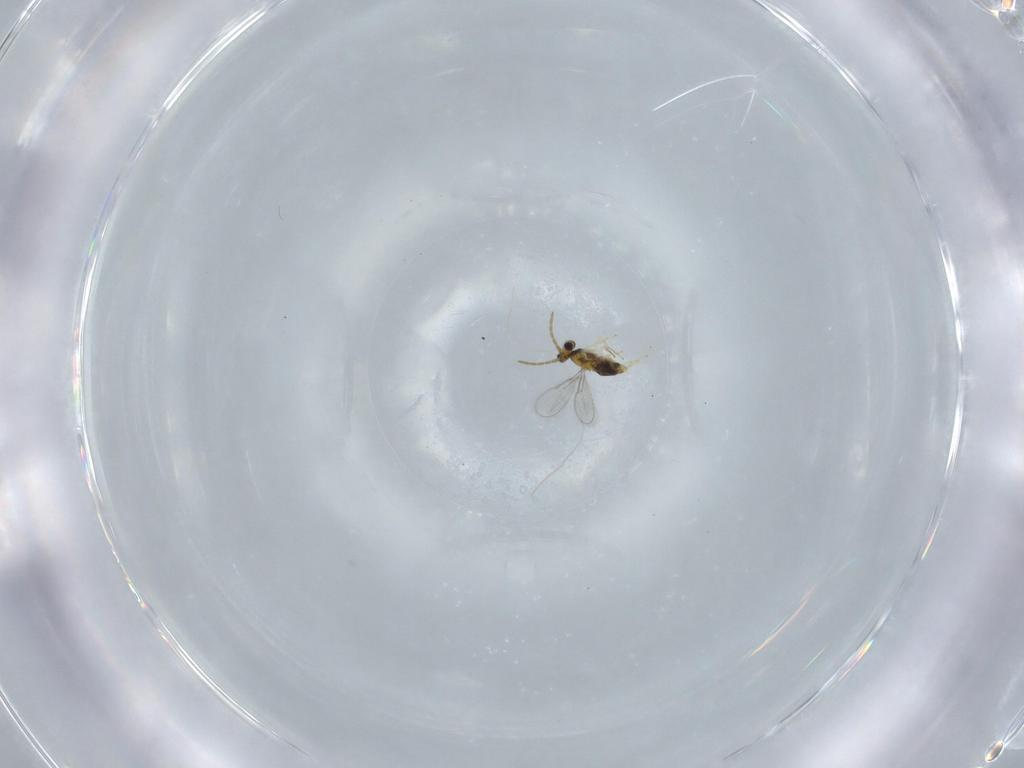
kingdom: Animalia
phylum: Arthropoda
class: Insecta
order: Hymenoptera
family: Aphelinidae
